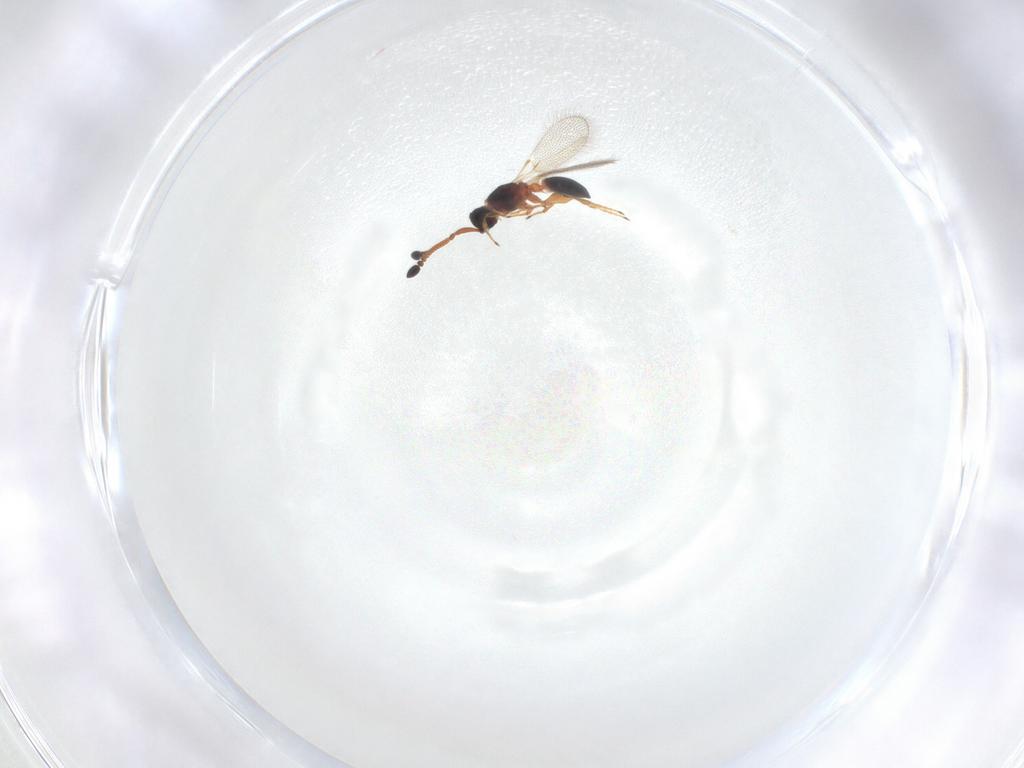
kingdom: Animalia
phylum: Arthropoda
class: Insecta
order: Hymenoptera
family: Diapriidae
